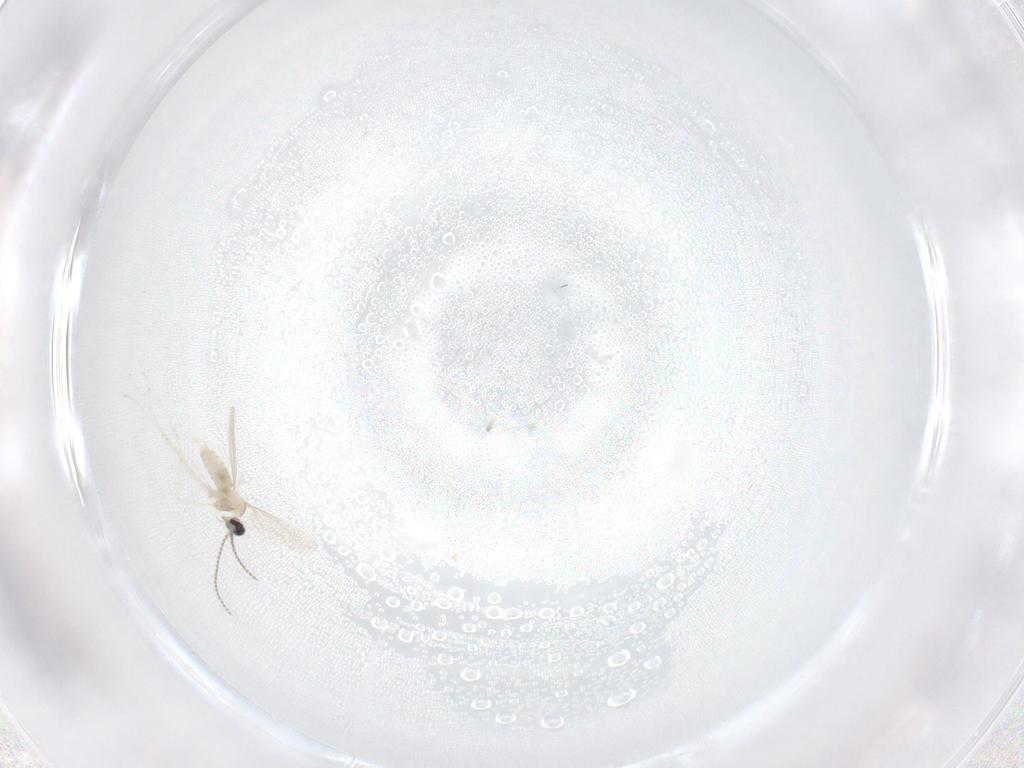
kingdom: Animalia
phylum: Arthropoda
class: Insecta
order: Diptera
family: Cecidomyiidae
